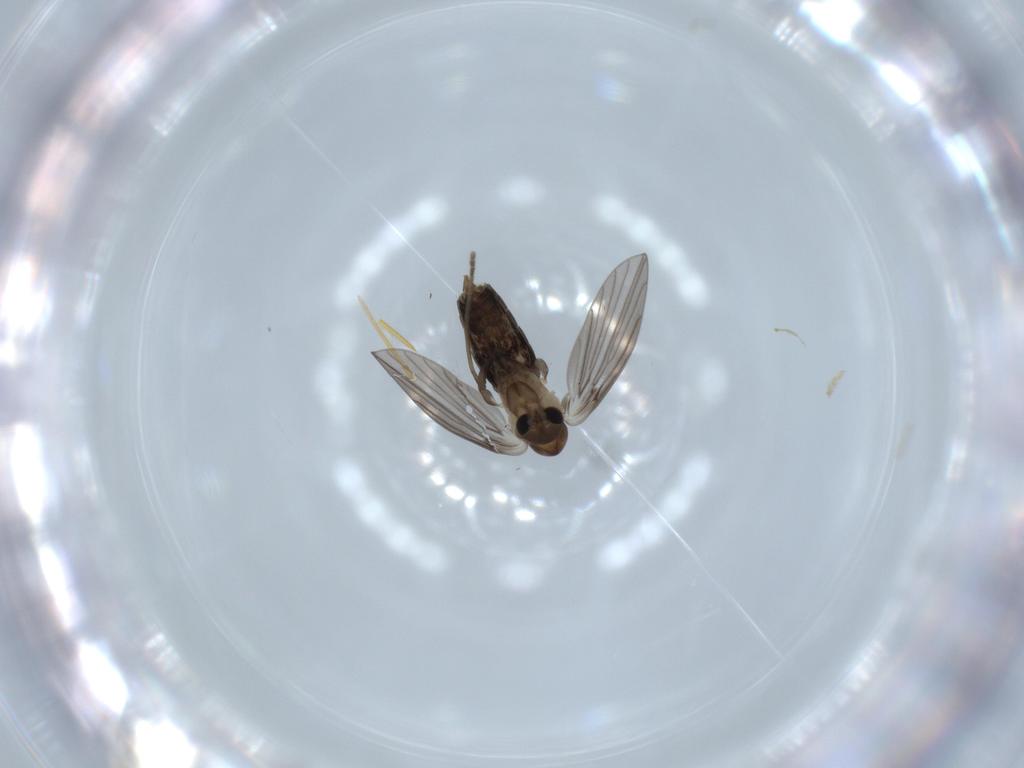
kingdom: Animalia
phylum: Arthropoda
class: Insecta
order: Diptera
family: Psychodidae
